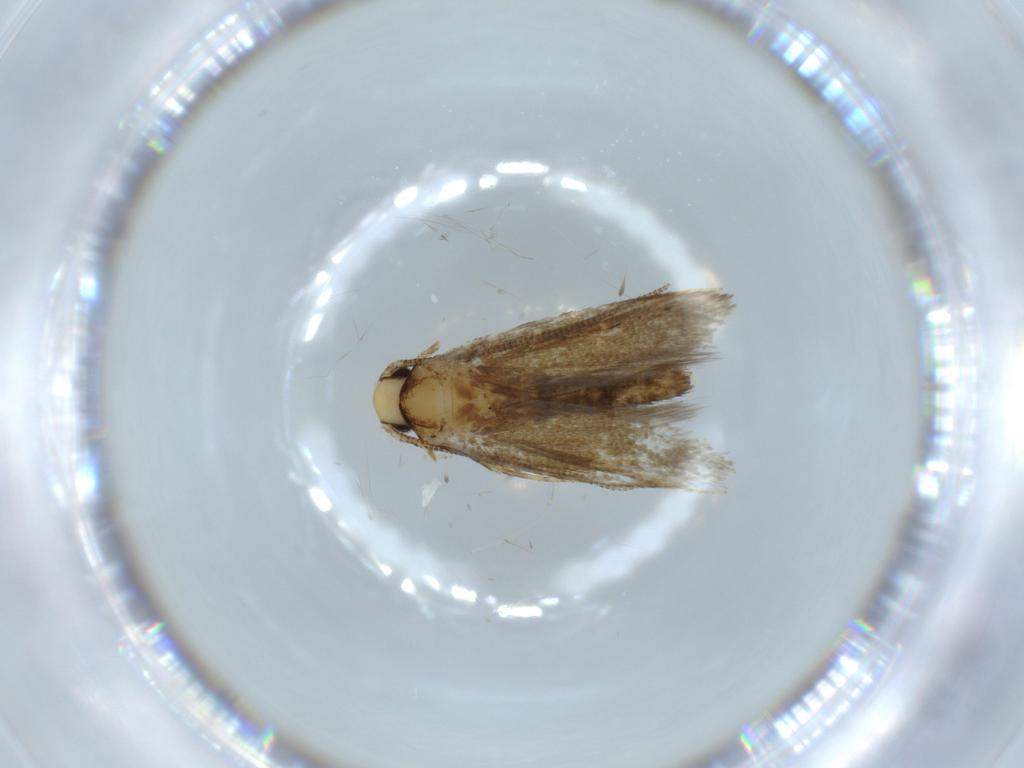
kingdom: Animalia
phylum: Arthropoda
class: Insecta
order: Lepidoptera
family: Tineidae
